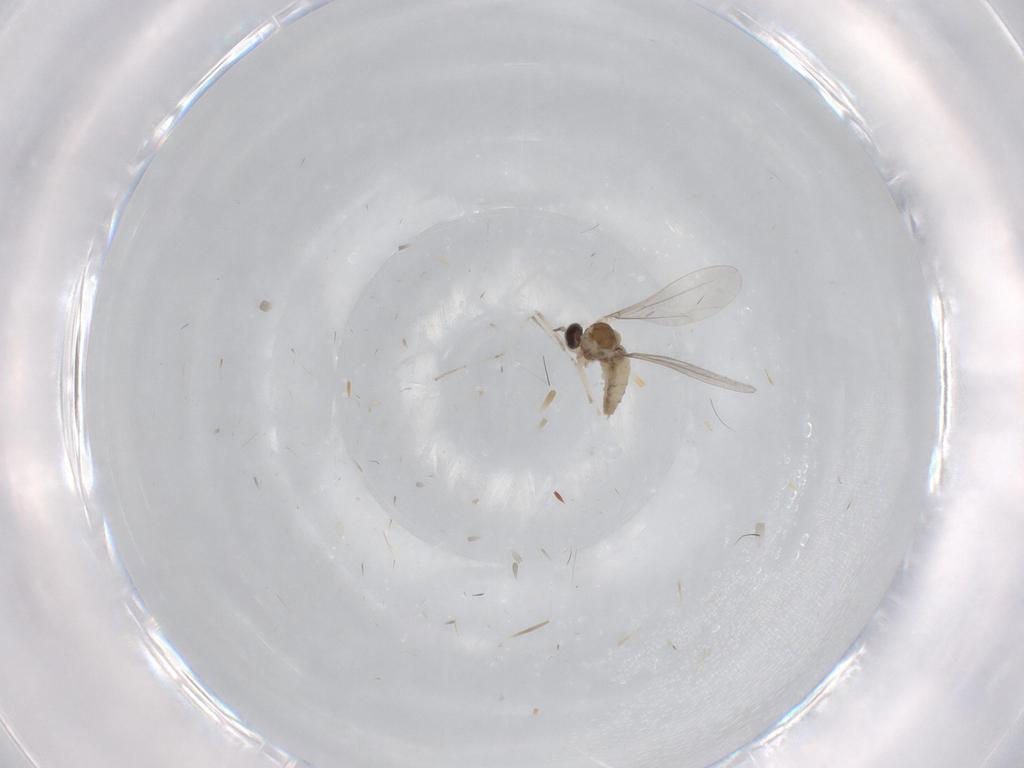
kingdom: Animalia
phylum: Arthropoda
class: Insecta
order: Diptera
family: Cecidomyiidae
